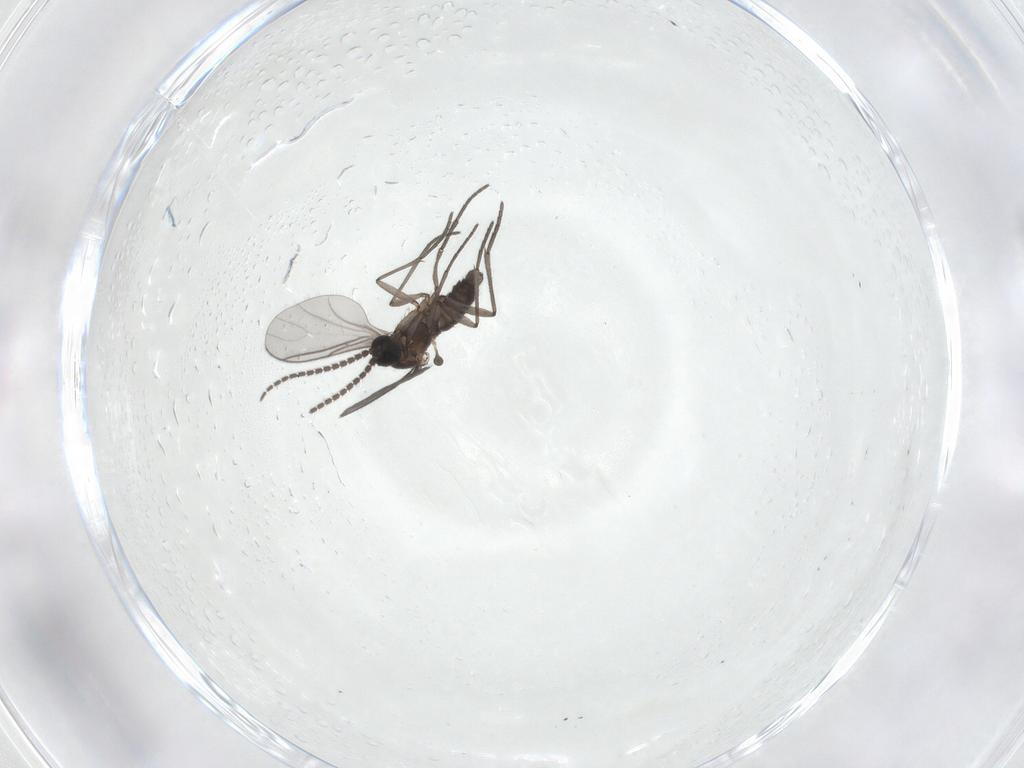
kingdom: Animalia
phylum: Arthropoda
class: Insecta
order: Diptera
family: Sciaridae
